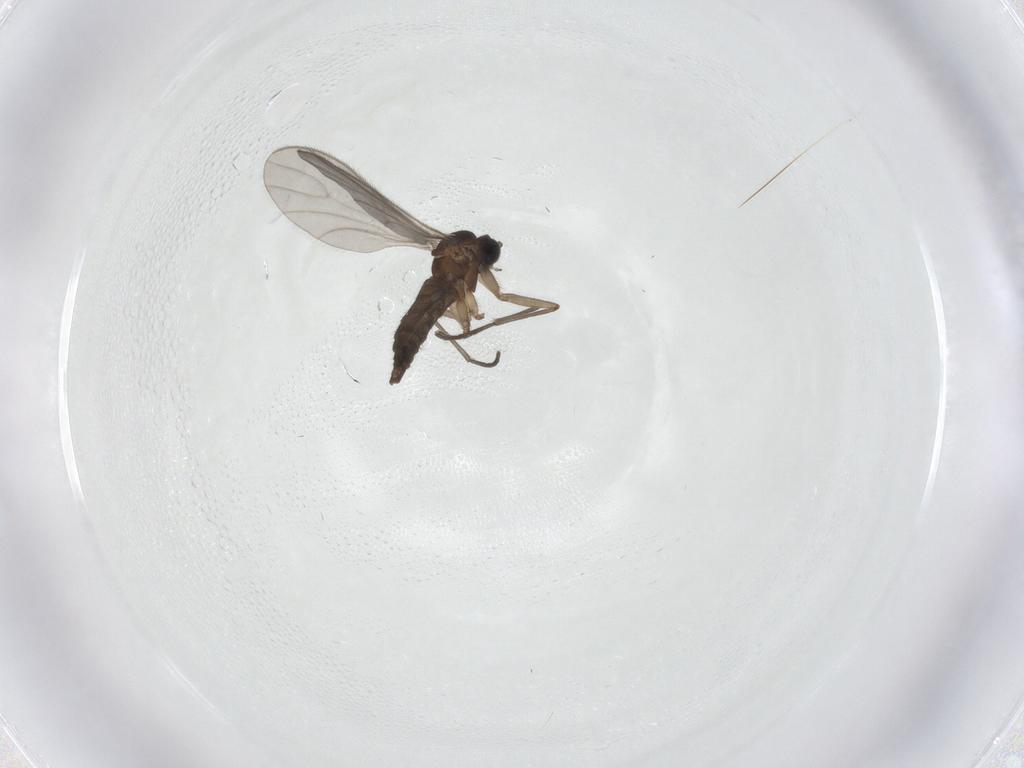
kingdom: Animalia
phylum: Arthropoda
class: Insecta
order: Diptera
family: Sciaridae
